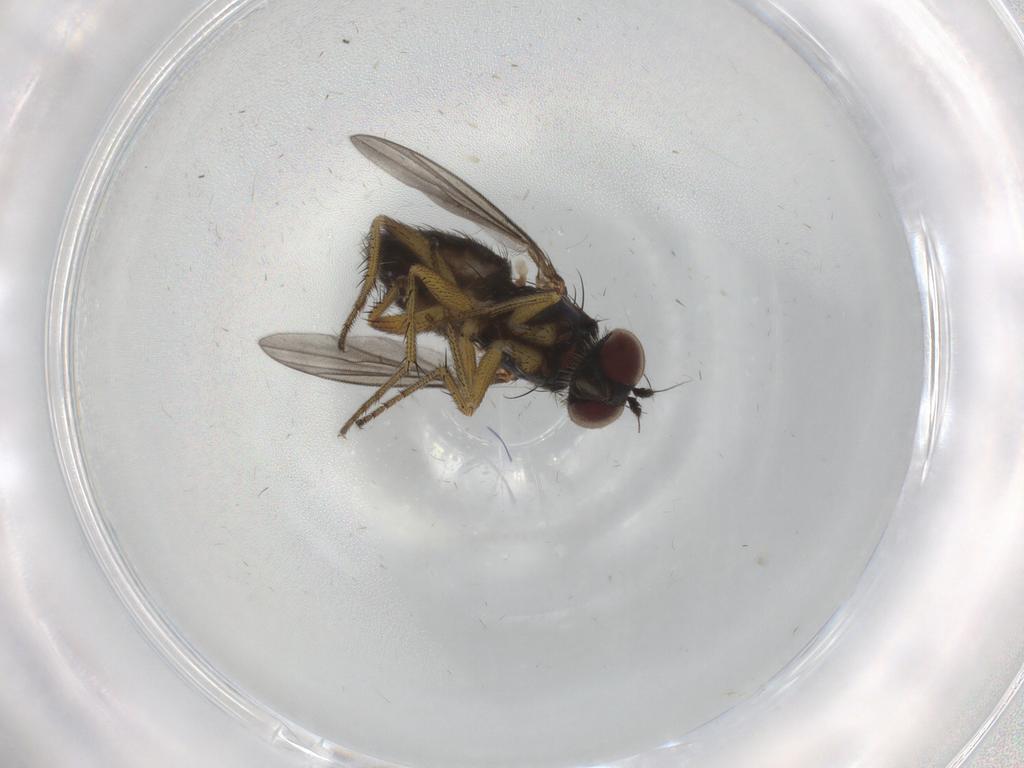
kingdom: Animalia
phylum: Arthropoda
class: Insecta
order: Diptera
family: Dolichopodidae
